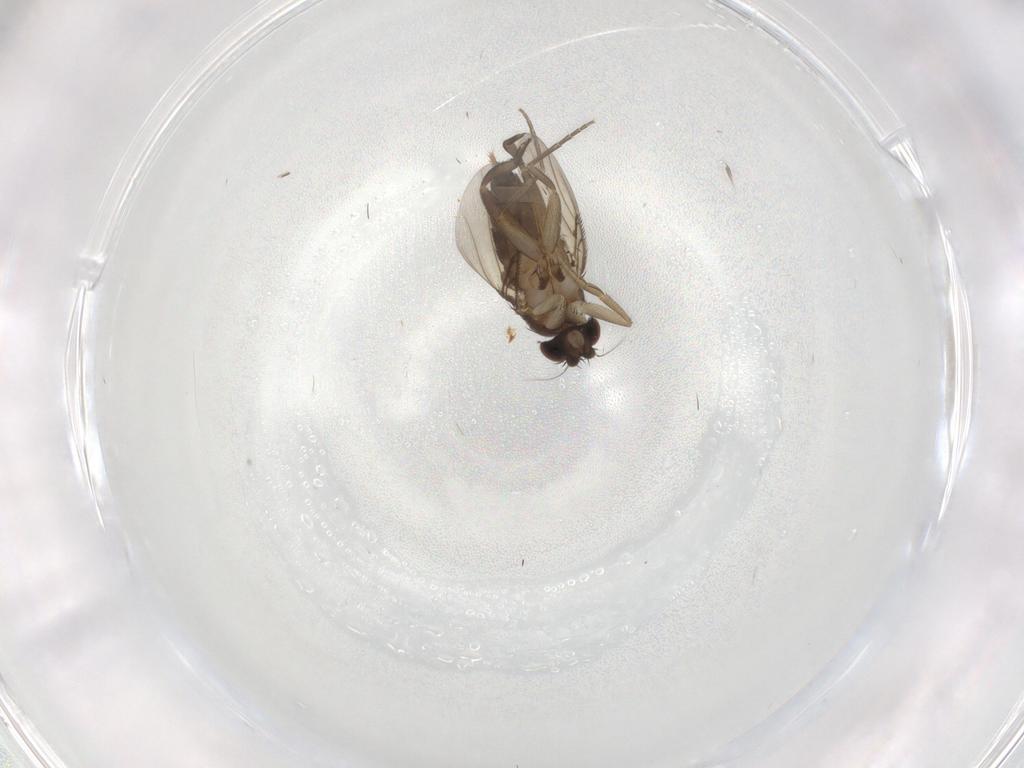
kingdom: Animalia
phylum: Arthropoda
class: Insecta
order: Diptera
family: Phoridae
